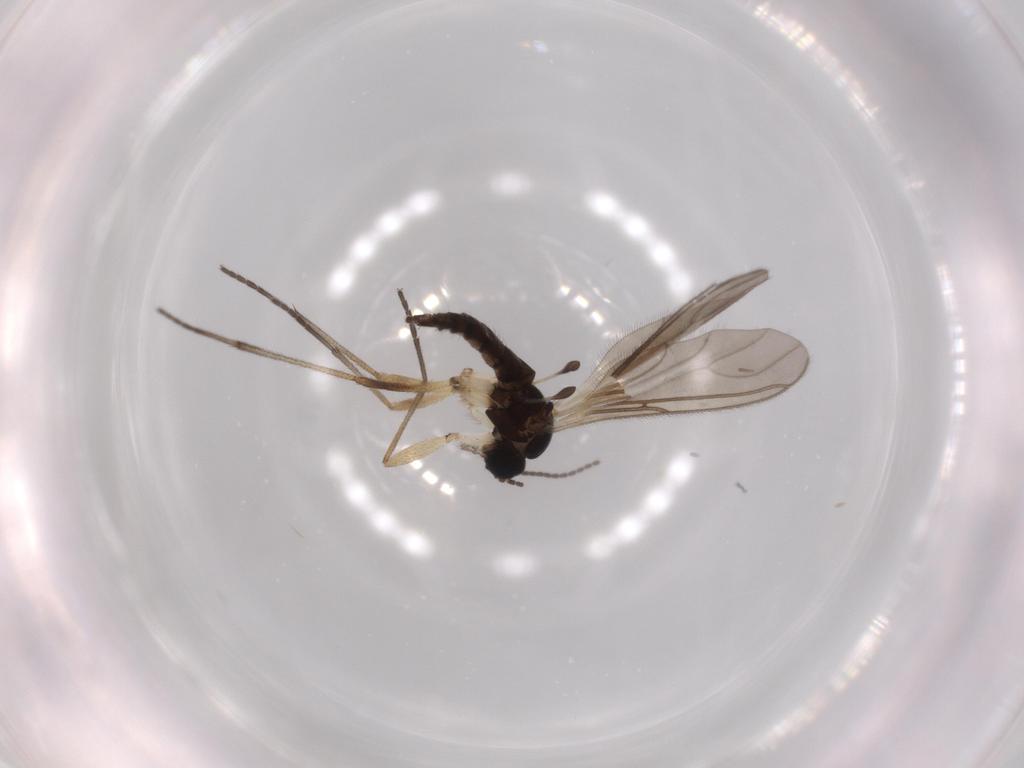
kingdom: Animalia
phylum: Arthropoda
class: Insecta
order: Diptera
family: Sciaridae
